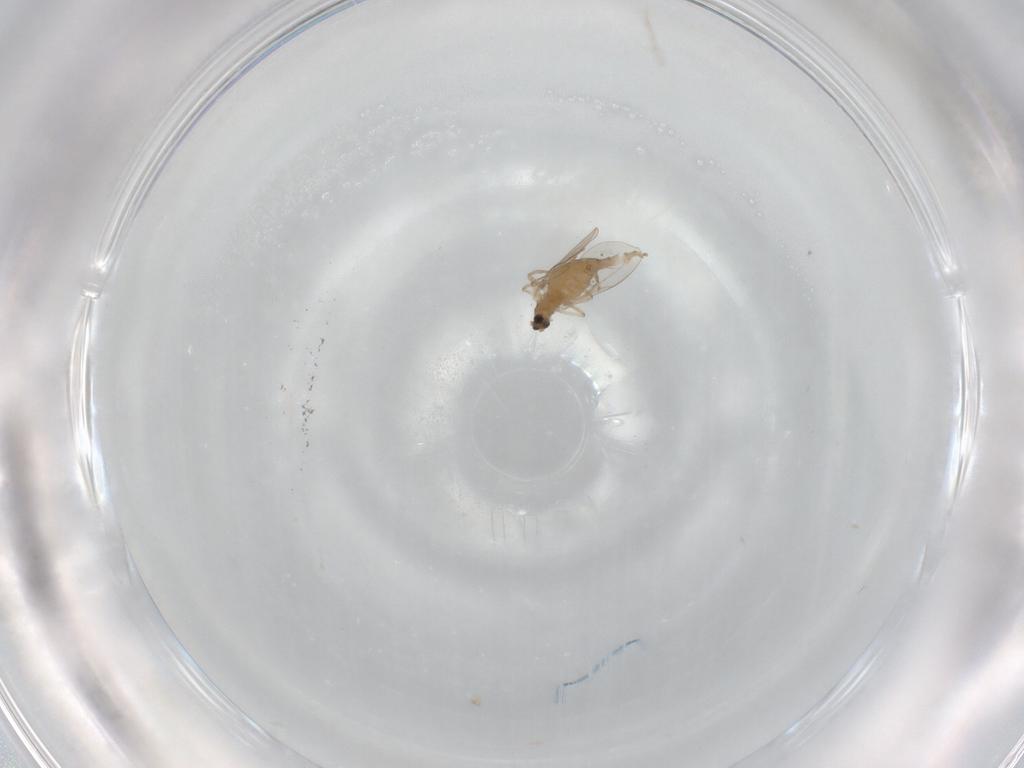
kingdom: Animalia
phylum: Arthropoda
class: Insecta
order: Diptera
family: Cecidomyiidae
